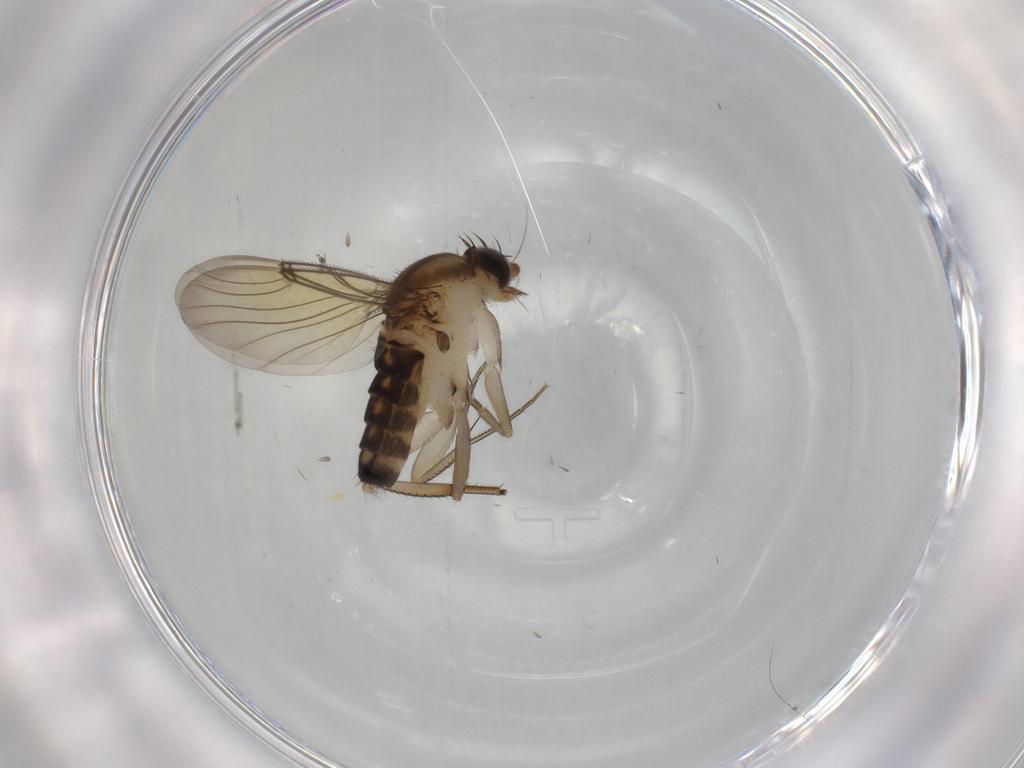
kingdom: Animalia
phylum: Arthropoda
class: Insecta
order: Diptera
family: Phoridae
